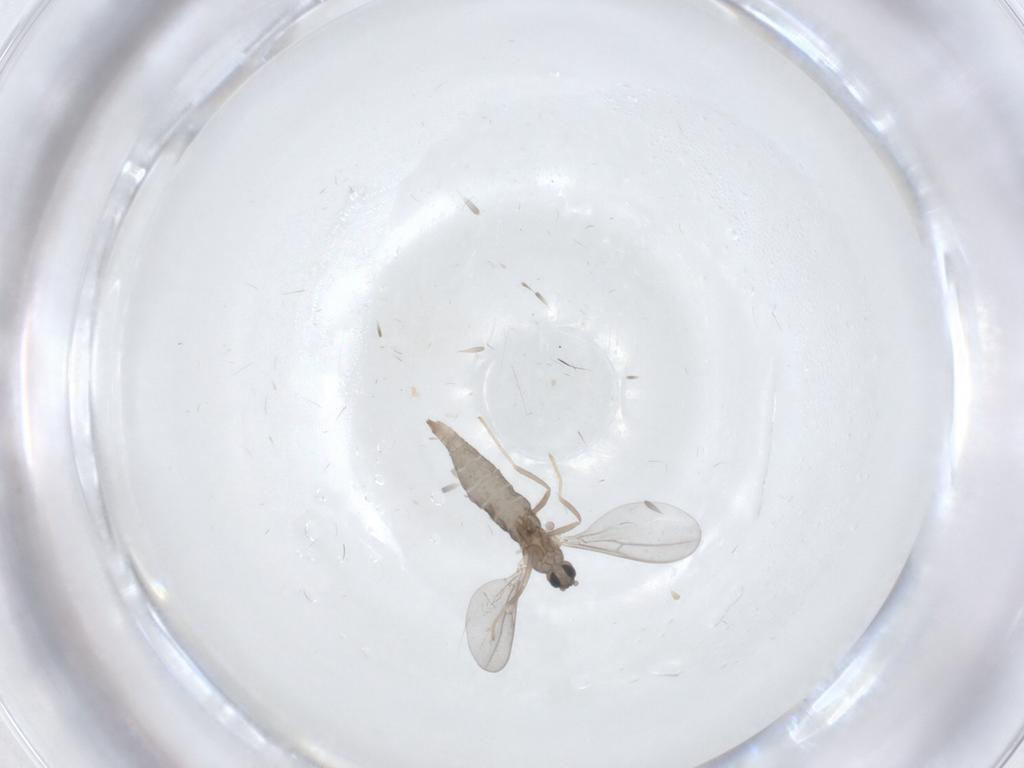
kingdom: Animalia
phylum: Arthropoda
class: Insecta
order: Diptera
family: Cecidomyiidae
